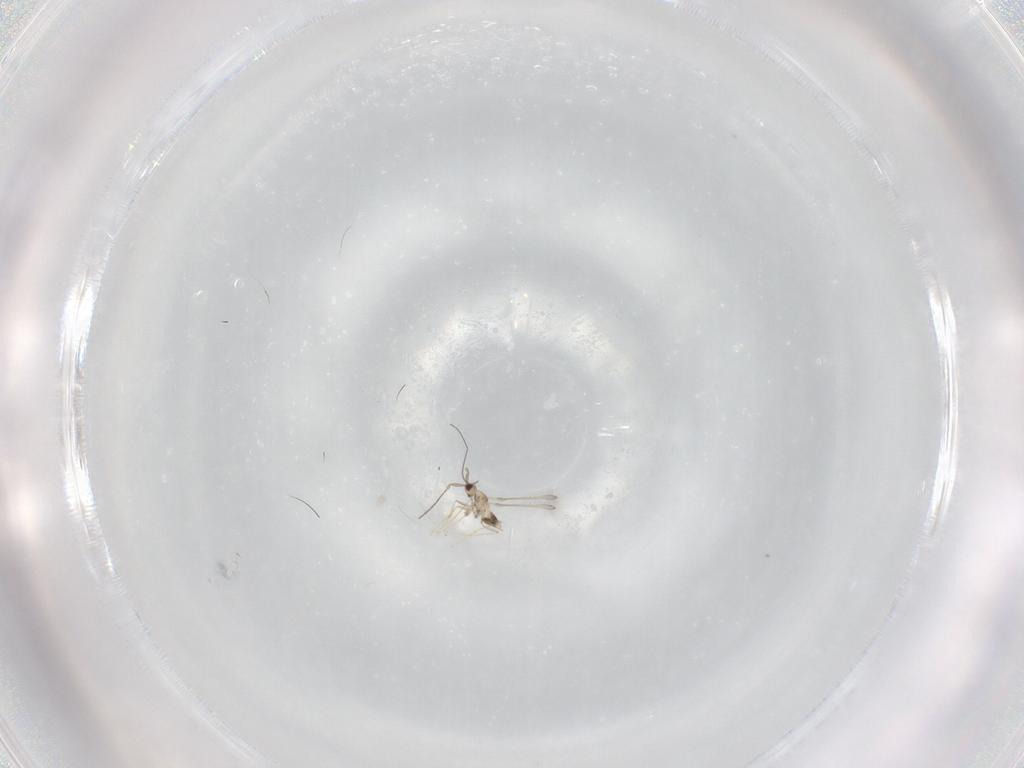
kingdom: Animalia
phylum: Arthropoda
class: Insecta
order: Hymenoptera
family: Mymaridae
